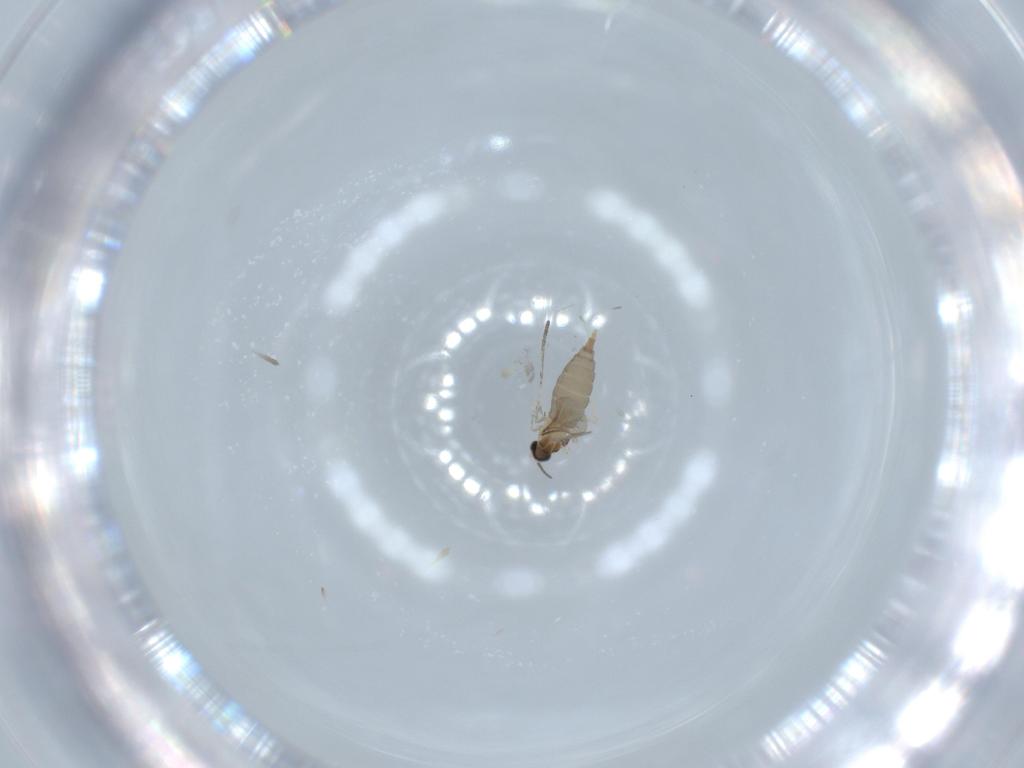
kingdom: Animalia
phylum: Arthropoda
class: Insecta
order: Diptera
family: Cecidomyiidae
